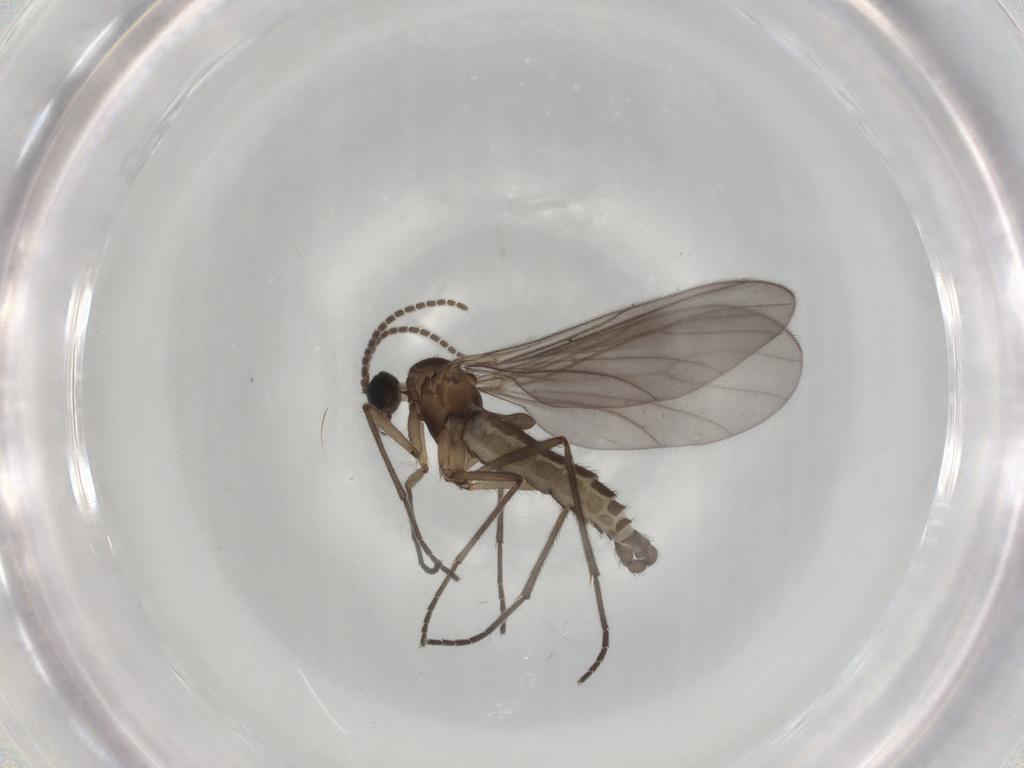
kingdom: Animalia
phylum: Arthropoda
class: Insecta
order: Diptera
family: Sciaridae
